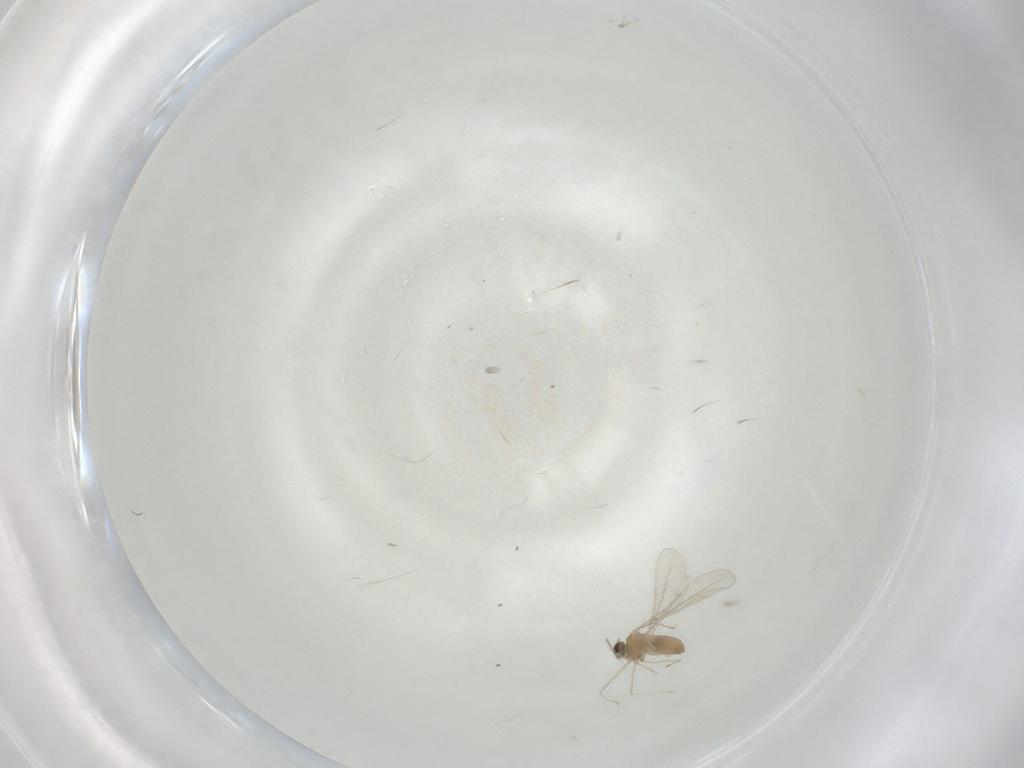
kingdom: Animalia
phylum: Arthropoda
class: Insecta
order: Diptera
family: Cecidomyiidae
